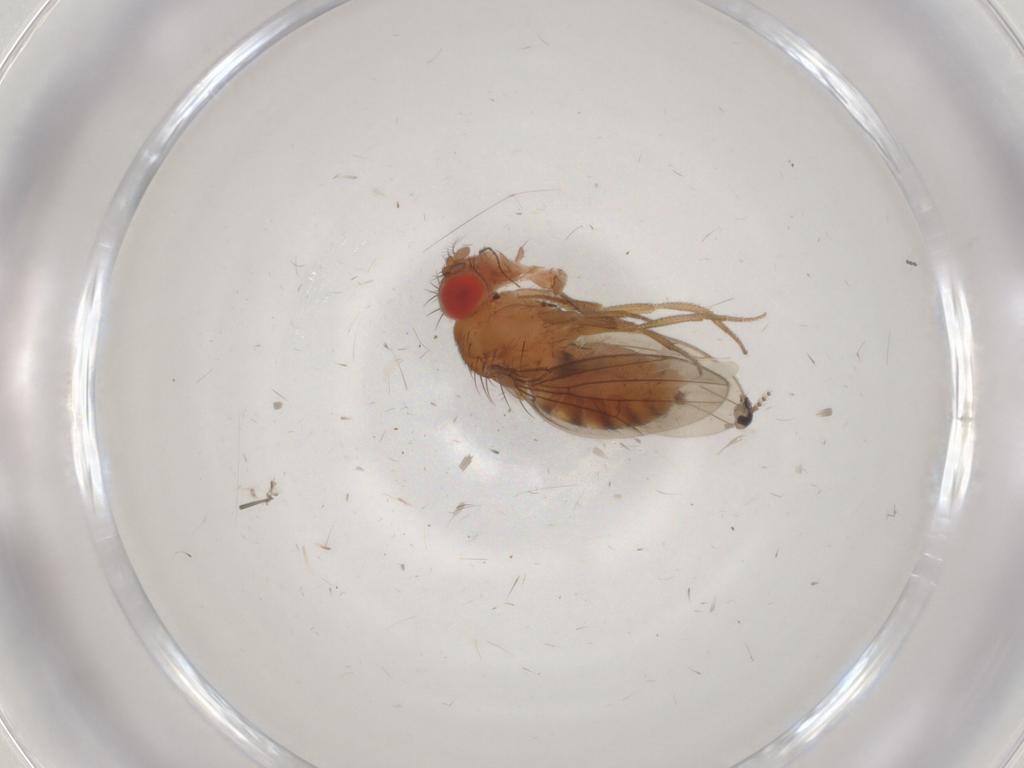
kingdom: Animalia
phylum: Arthropoda
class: Insecta
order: Diptera
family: Drosophilidae
